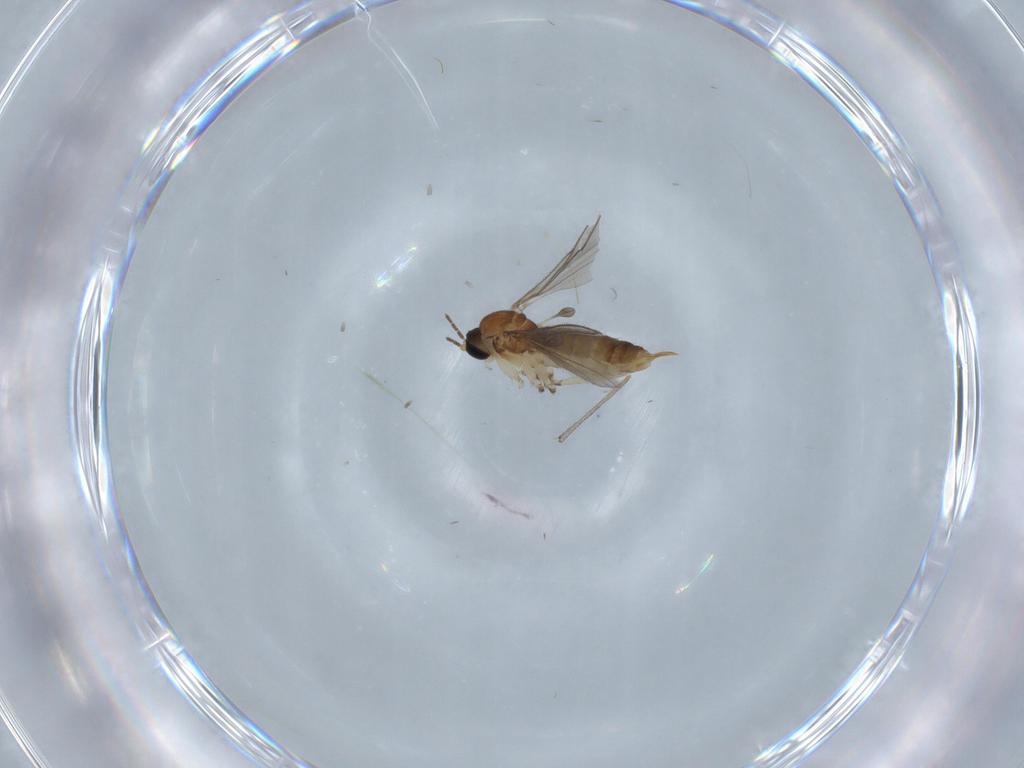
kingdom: Animalia
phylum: Arthropoda
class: Insecta
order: Diptera
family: Sciaridae
